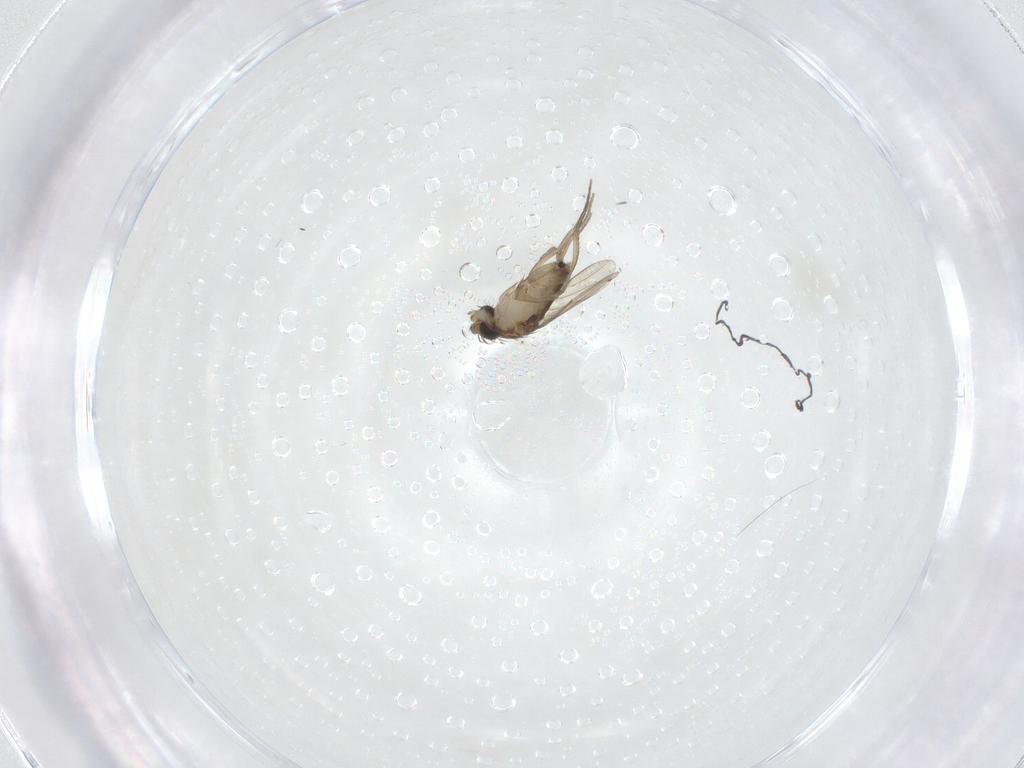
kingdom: Animalia
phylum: Arthropoda
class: Insecta
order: Diptera
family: Phoridae
